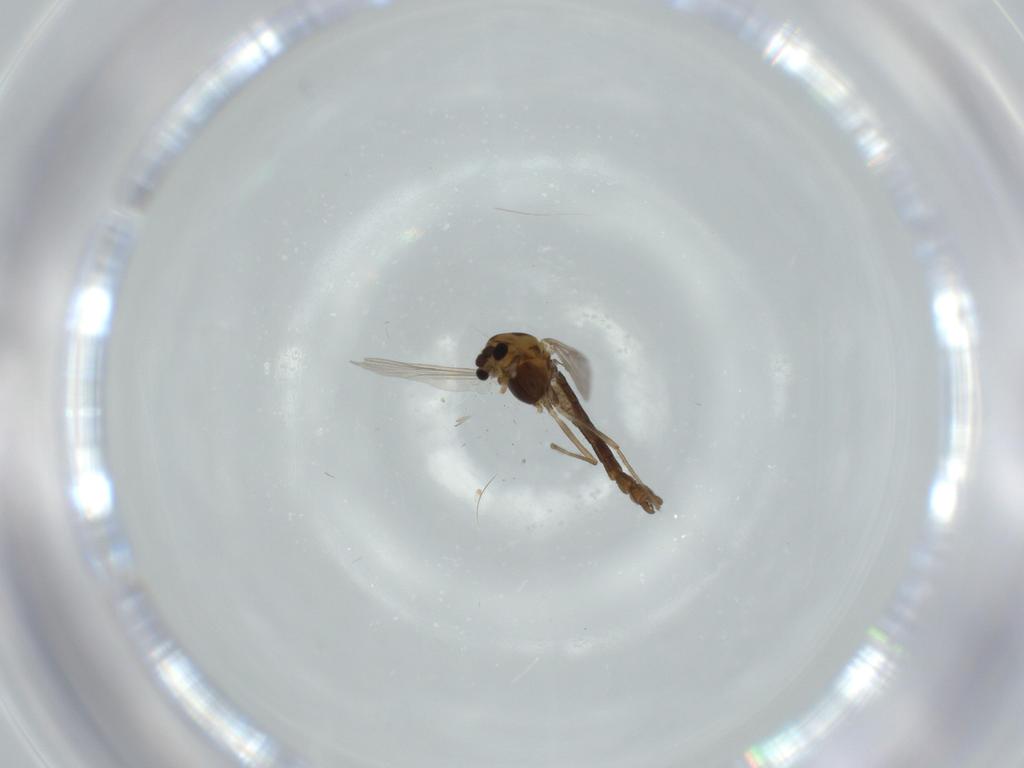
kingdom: Animalia
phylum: Arthropoda
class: Insecta
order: Diptera
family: Chironomidae
